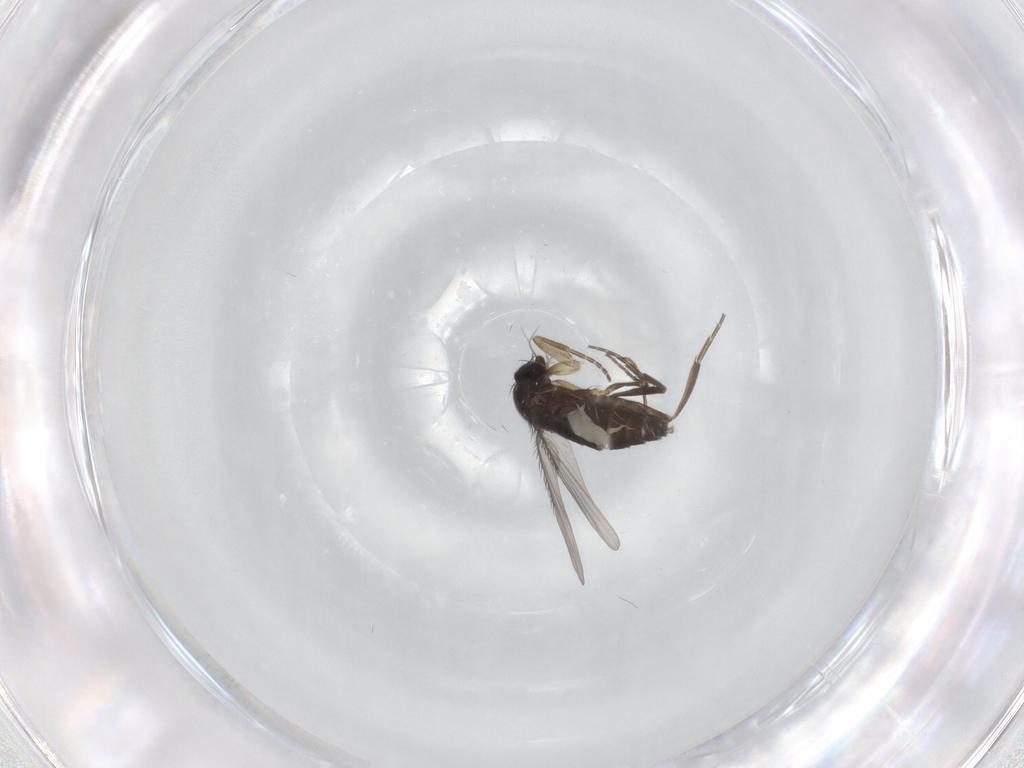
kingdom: Animalia
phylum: Arthropoda
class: Insecta
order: Diptera
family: Phoridae
